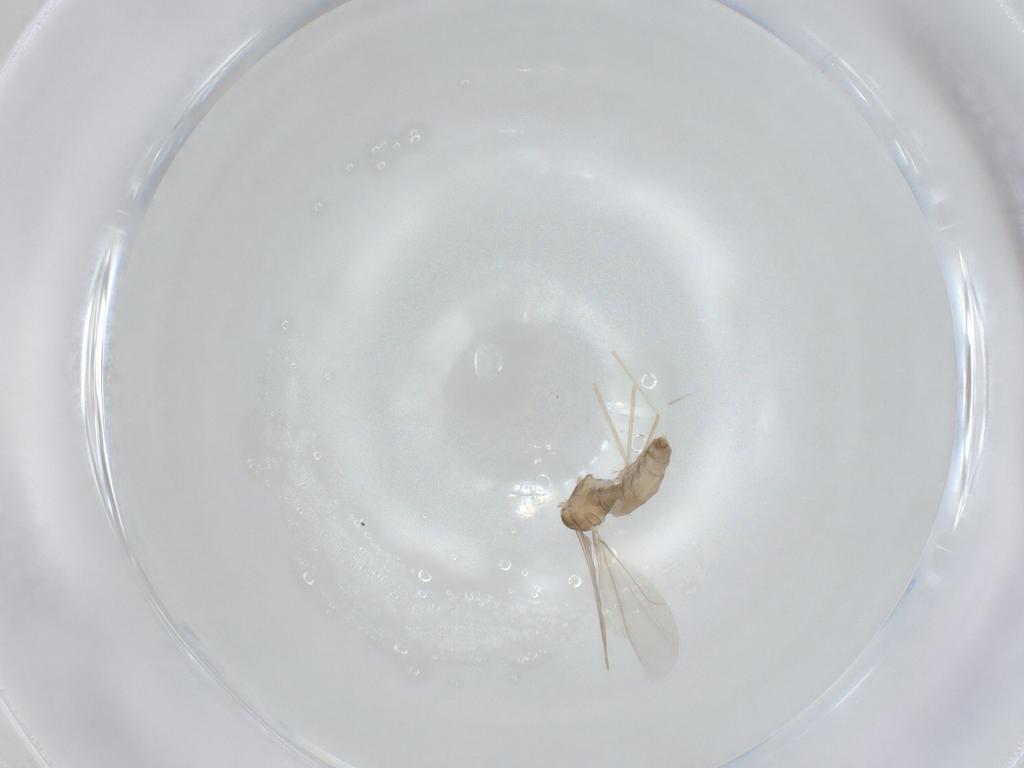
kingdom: Animalia
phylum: Arthropoda
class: Insecta
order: Diptera
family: Cecidomyiidae
